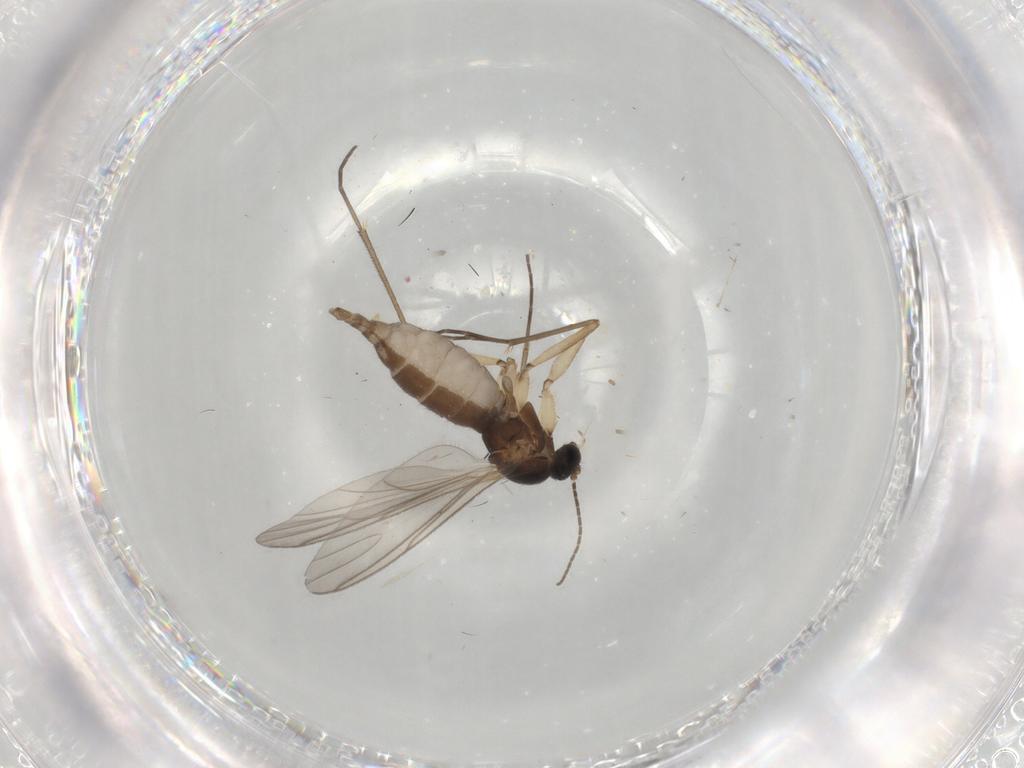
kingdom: Animalia
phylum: Arthropoda
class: Insecta
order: Diptera
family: Sciaridae
